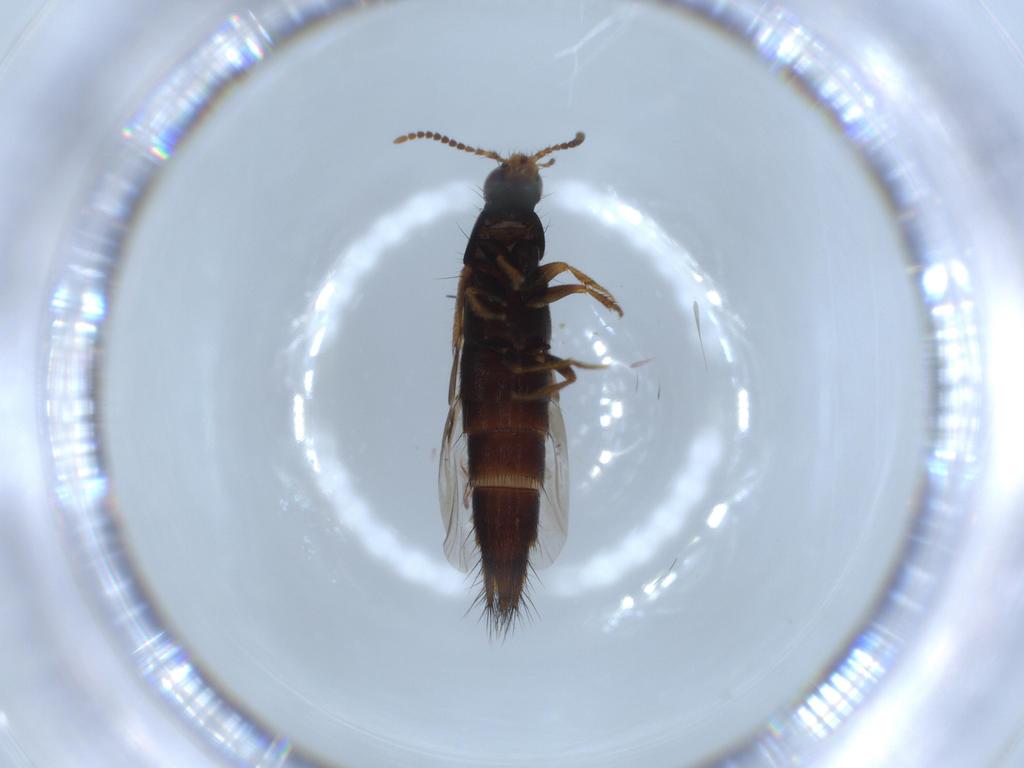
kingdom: Animalia
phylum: Arthropoda
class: Insecta
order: Coleoptera
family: Staphylinidae
